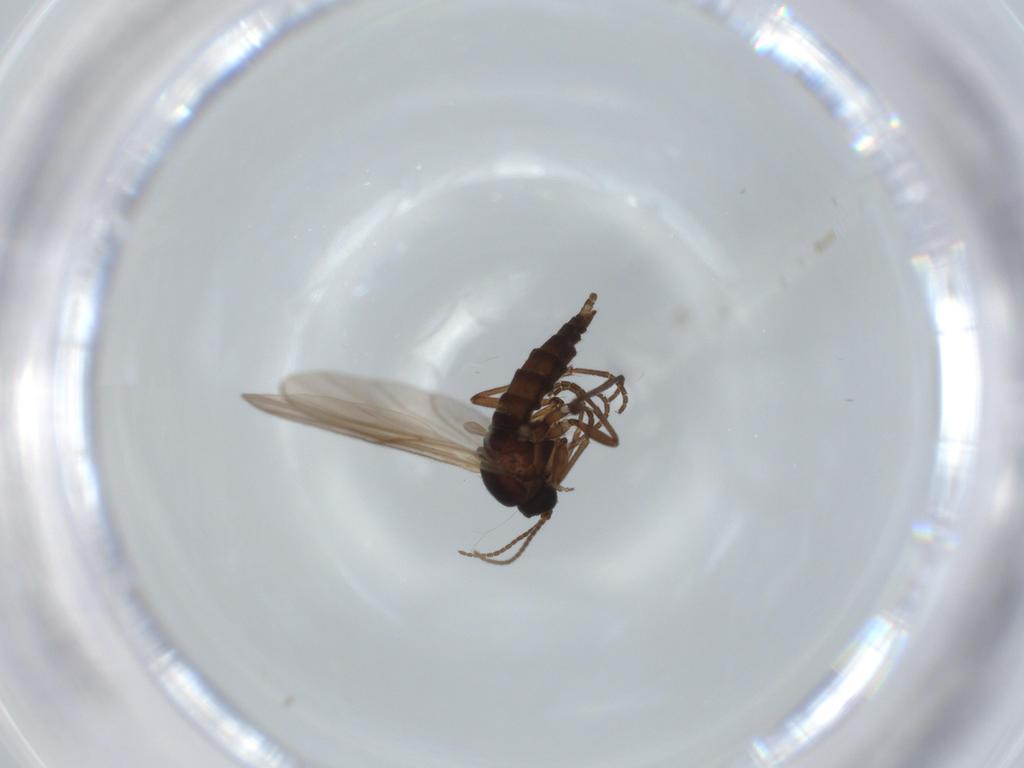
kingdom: Animalia
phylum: Arthropoda
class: Insecta
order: Diptera
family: Sciaridae
